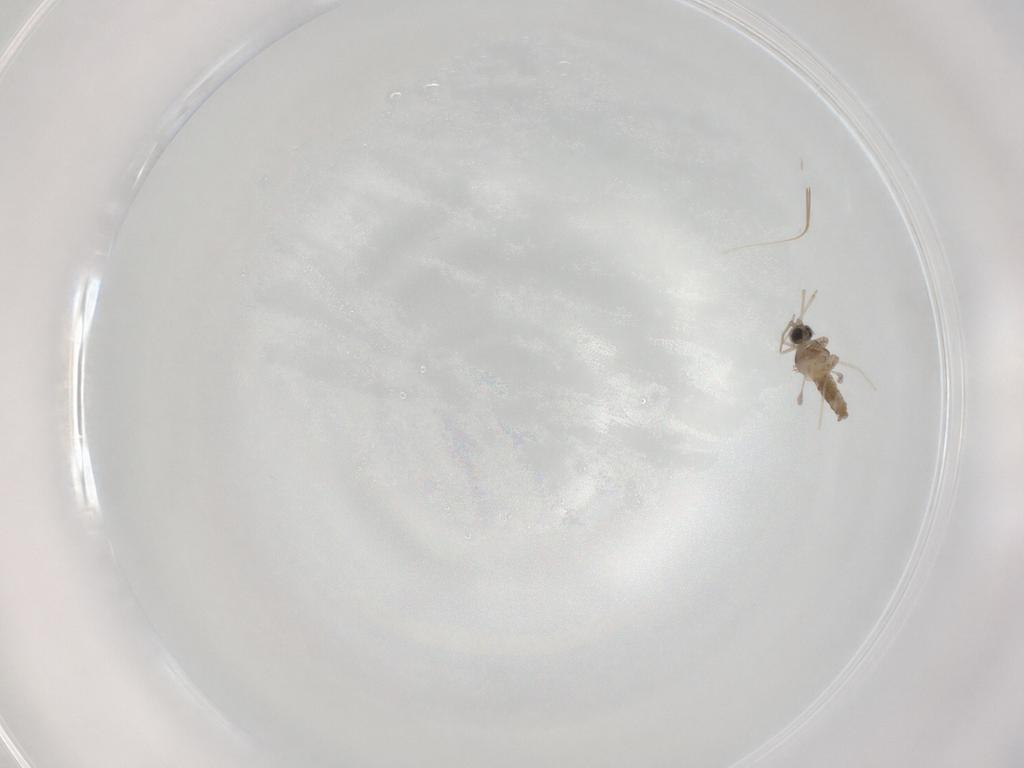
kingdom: Animalia
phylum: Arthropoda
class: Insecta
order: Diptera
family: Cecidomyiidae
